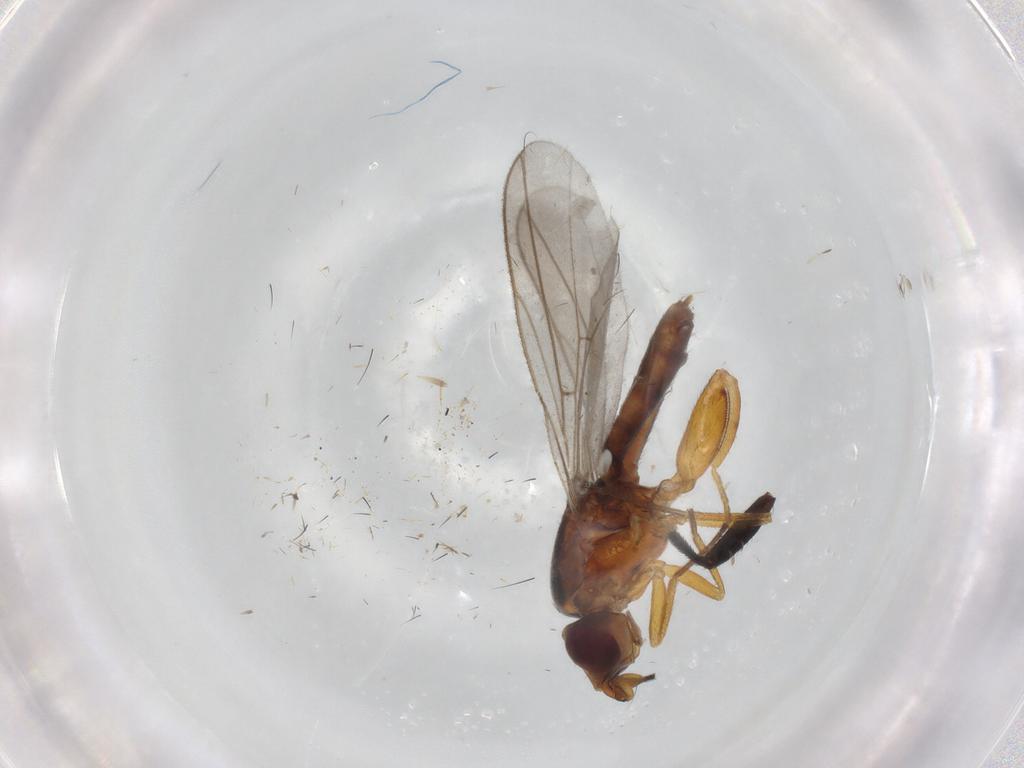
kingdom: Animalia
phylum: Arthropoda
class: Insecta
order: Diptera
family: Chloropidae
